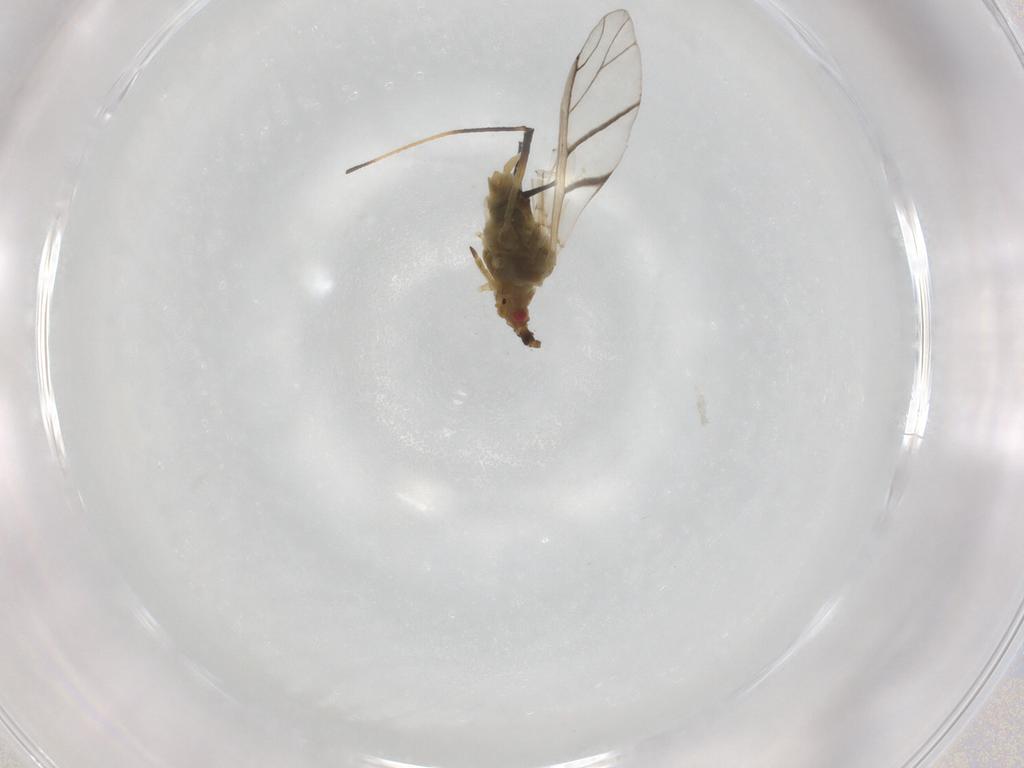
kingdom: Animalia
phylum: Arthropoda
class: Insecta
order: Hemiptera
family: Aphididae
